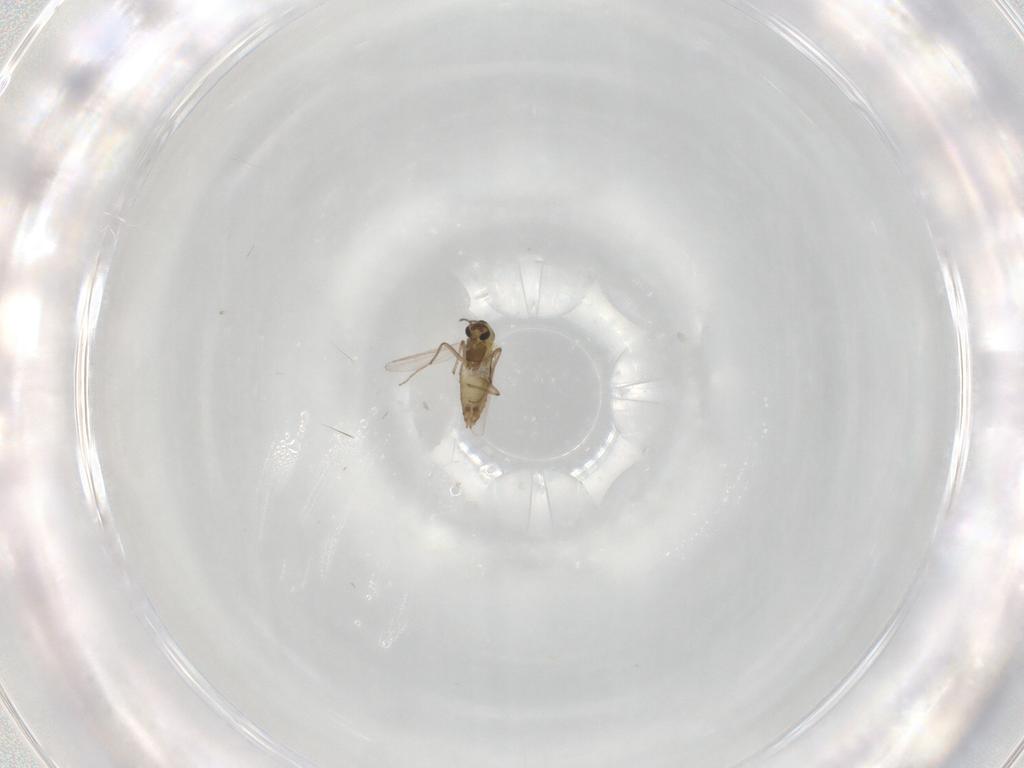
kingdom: Animalia
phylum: Arthropoda
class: Insecta
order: Diptera
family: Chironomidae
